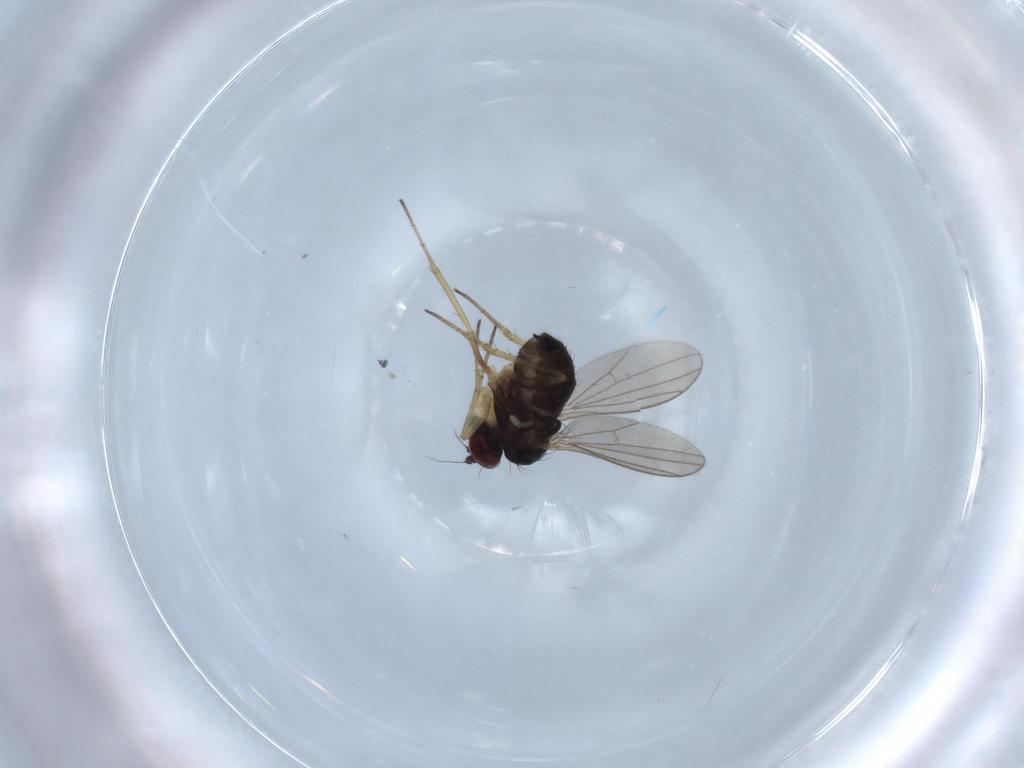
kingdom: Animalia
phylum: Arthropoda
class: Insecta
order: Diptera
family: Dolichopodidae
